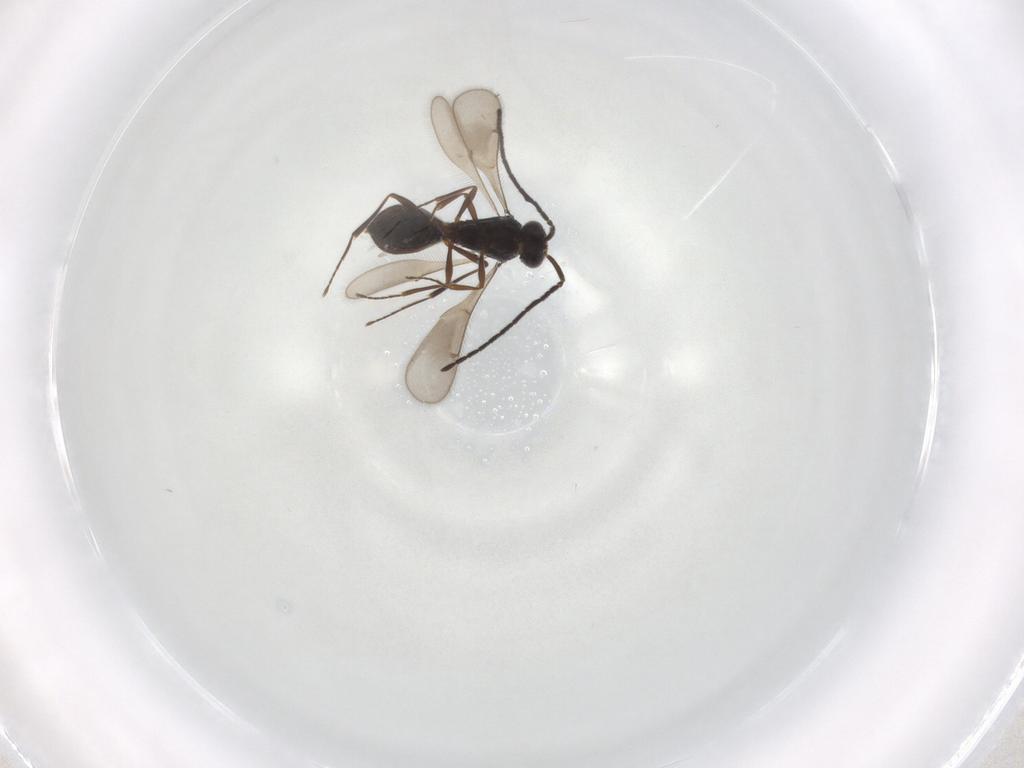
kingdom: Animalia
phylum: Arthropoda
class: Insecta
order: Hymenoptera
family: Scelionidae
